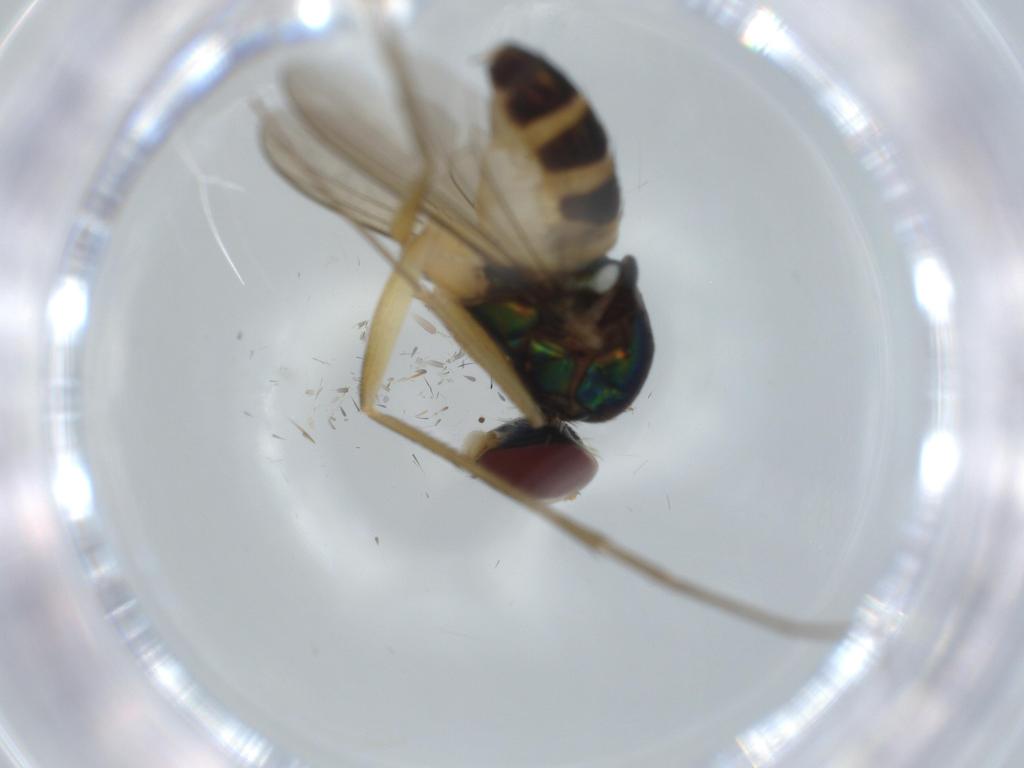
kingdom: Animalia
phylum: Arthropoda
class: Insecta
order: Diptera
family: Dolichopodidae
